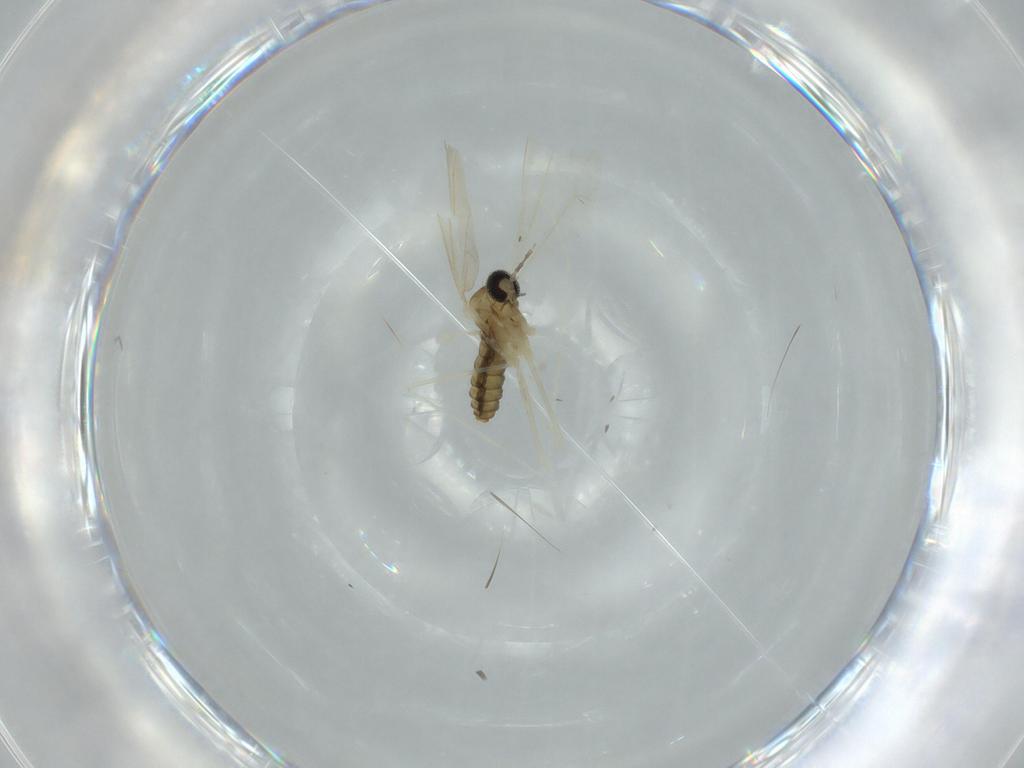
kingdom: Animalia
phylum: Arthropoda
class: Insecta
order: Diptera
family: Cecidomyiidae
